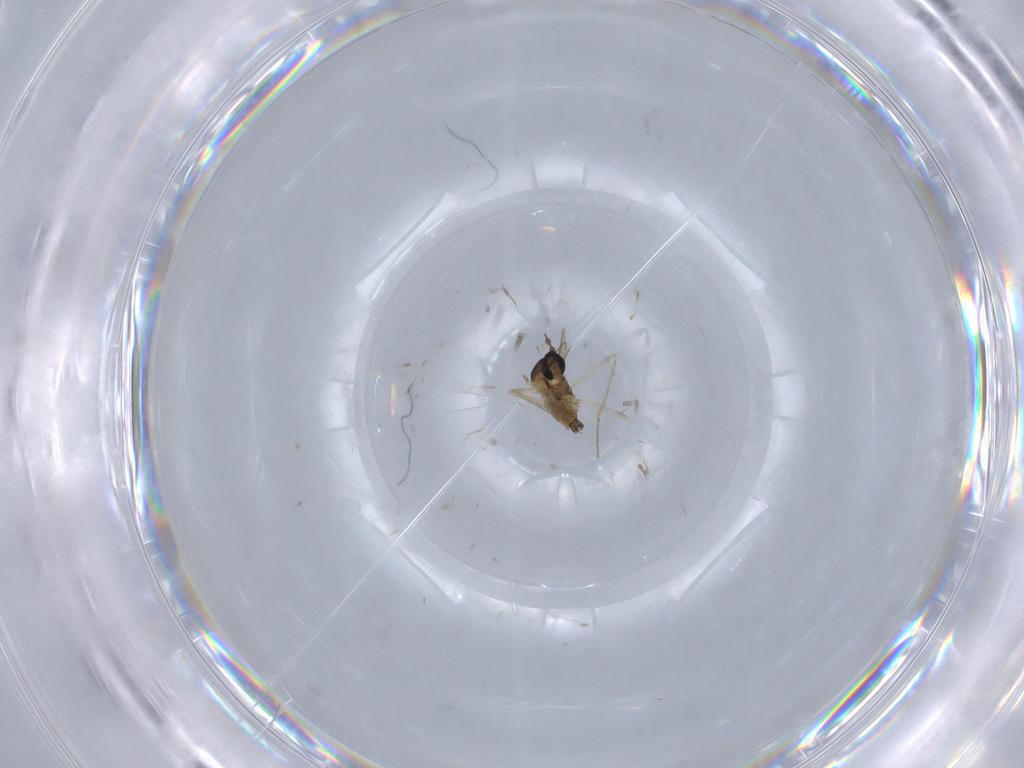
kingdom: Animalia
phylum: Arthropoda
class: Insecta
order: Diptera
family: Cecidomyiidae
